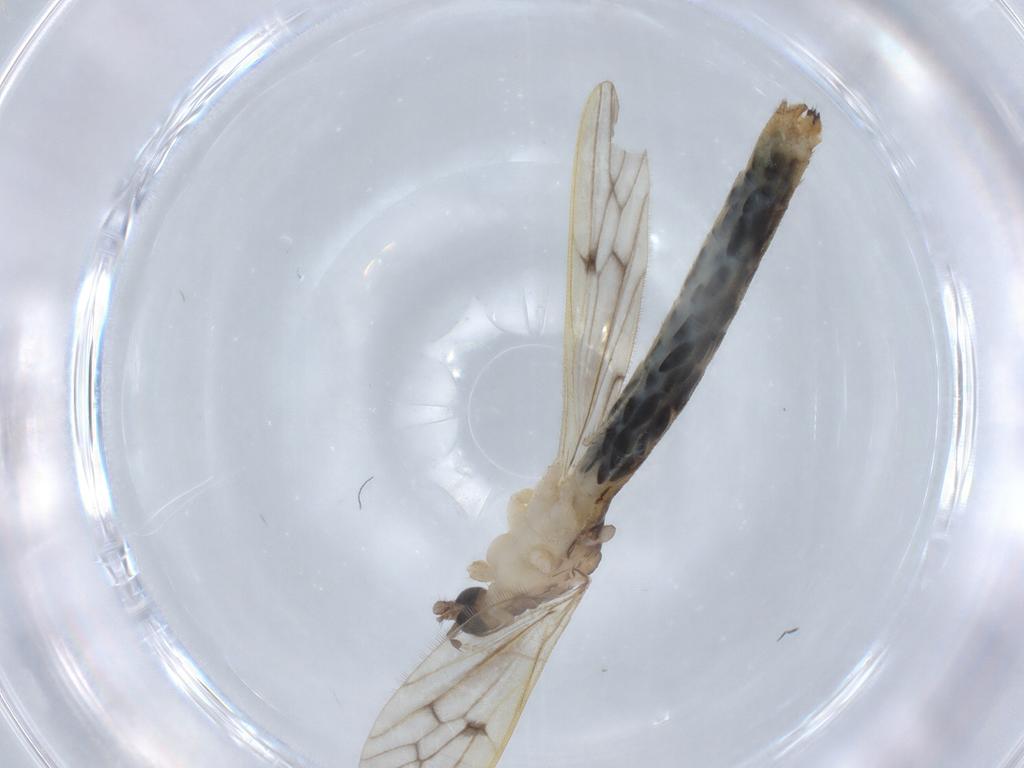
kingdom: Animalia
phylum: Arthropoda
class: Insecta
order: Diptera
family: Limoniidae
